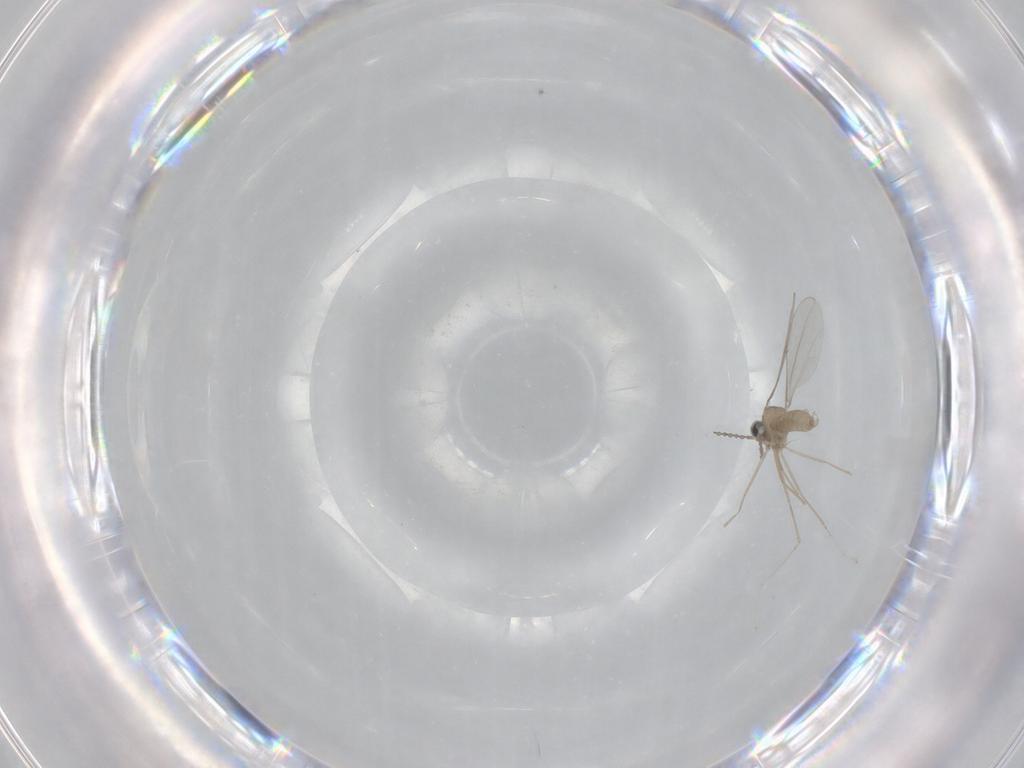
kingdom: Animalia
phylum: Arthropoda
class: Insecta
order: Diptera
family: Cecidomyiidae
